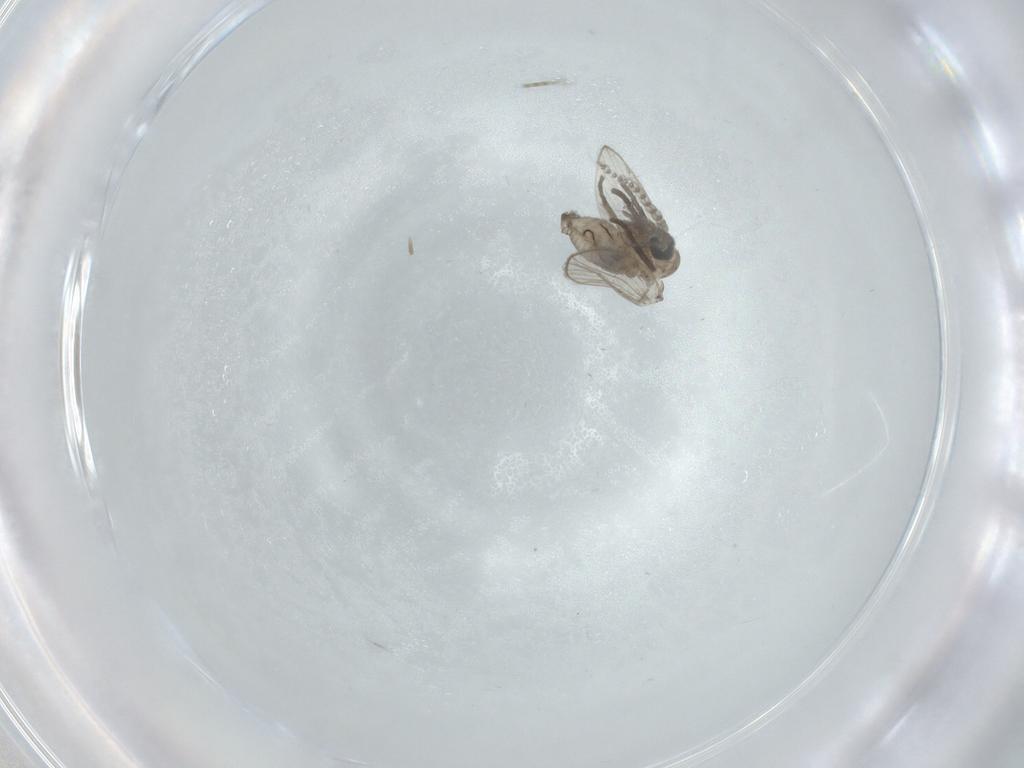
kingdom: Animalia
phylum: Arthropoda
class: Insecta
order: Diptera
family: Psychodidae
